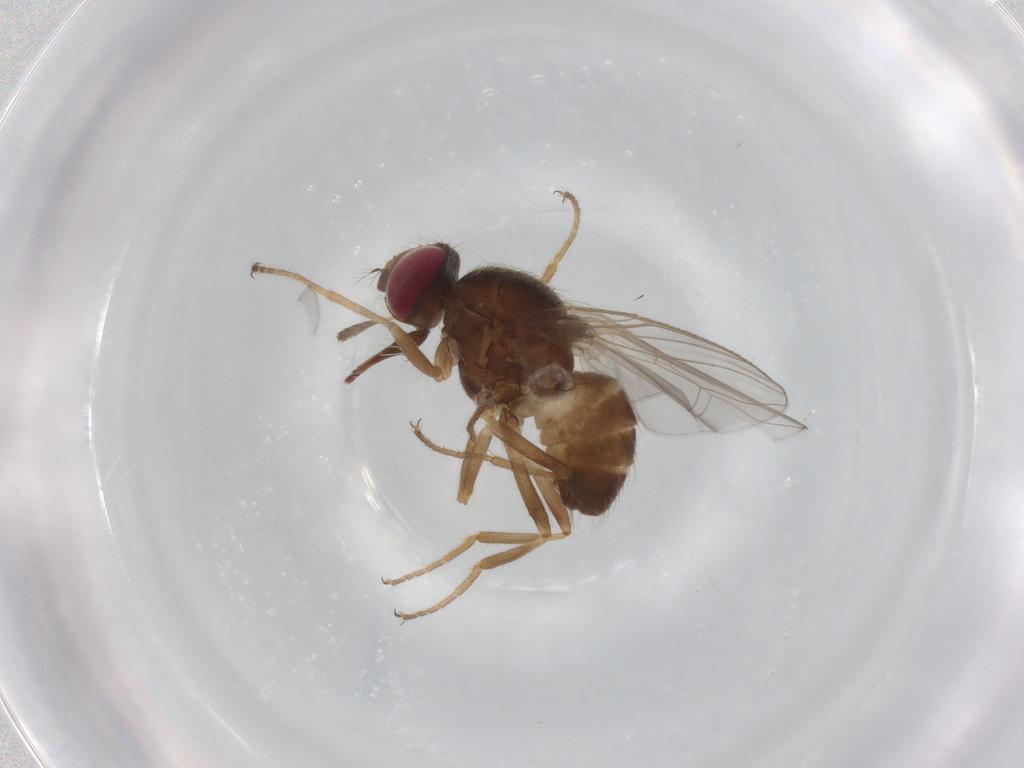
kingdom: Animalia
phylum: Arthropoda
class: Insecta
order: Diptera
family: Muscidae
